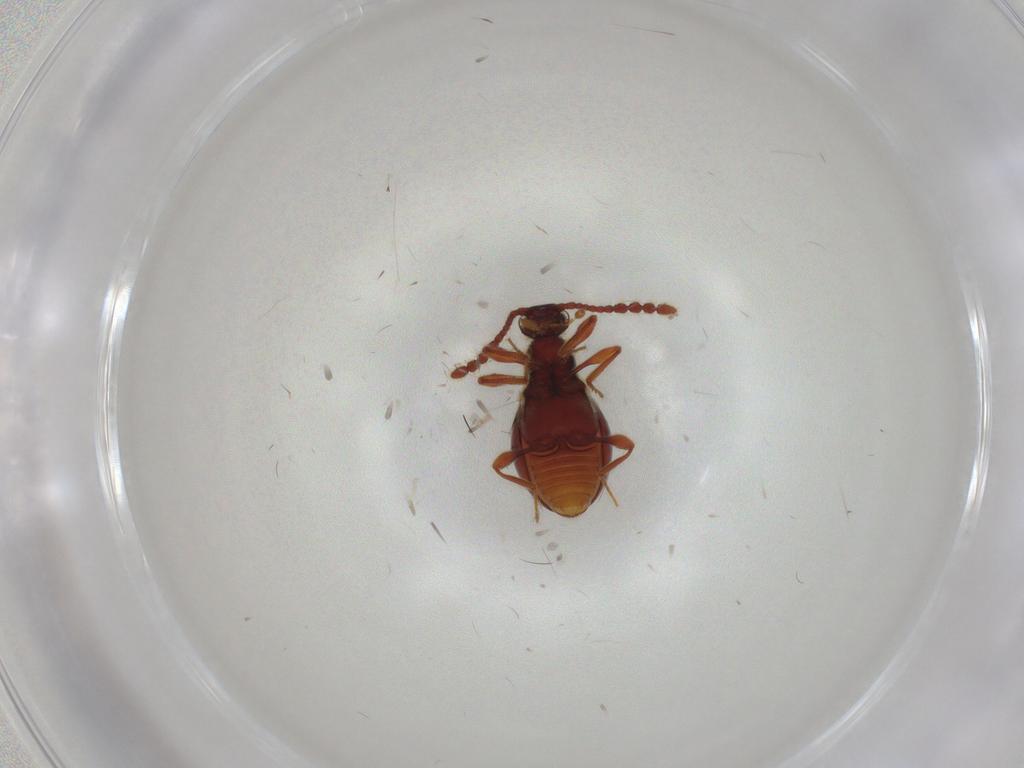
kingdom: Animalia
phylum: Arthropoda
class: Insecta
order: Coleoptera
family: Staphylinidae
